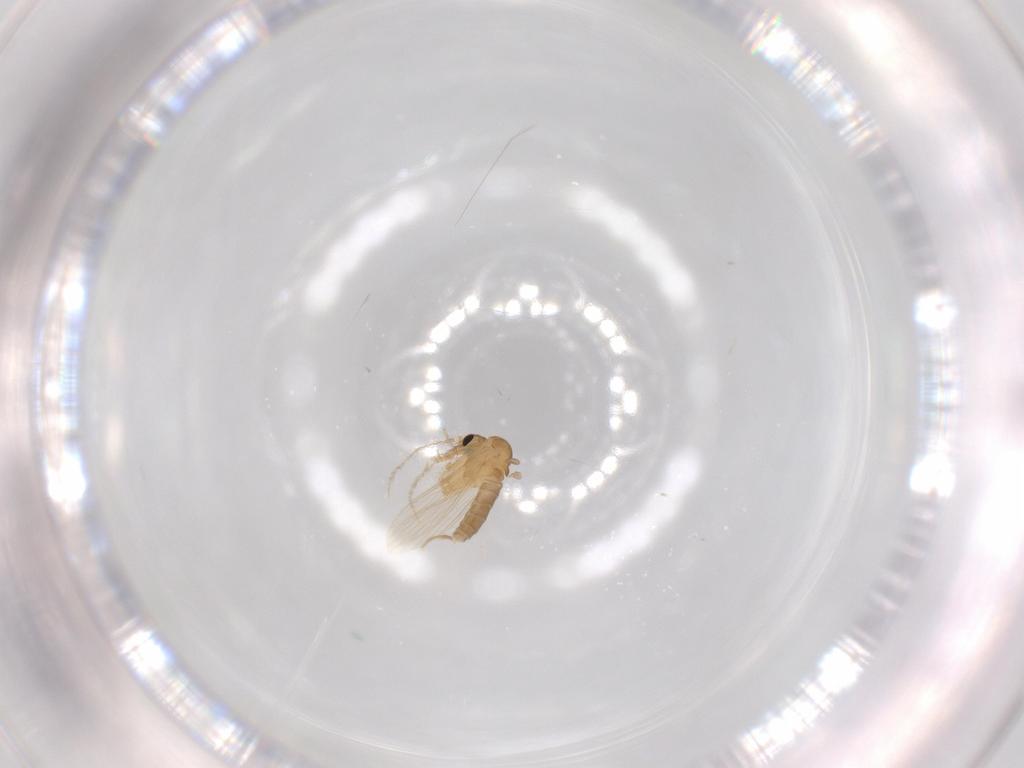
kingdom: Animalia
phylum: Arthropoda
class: Insecta
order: Diptera
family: Psychodidae
